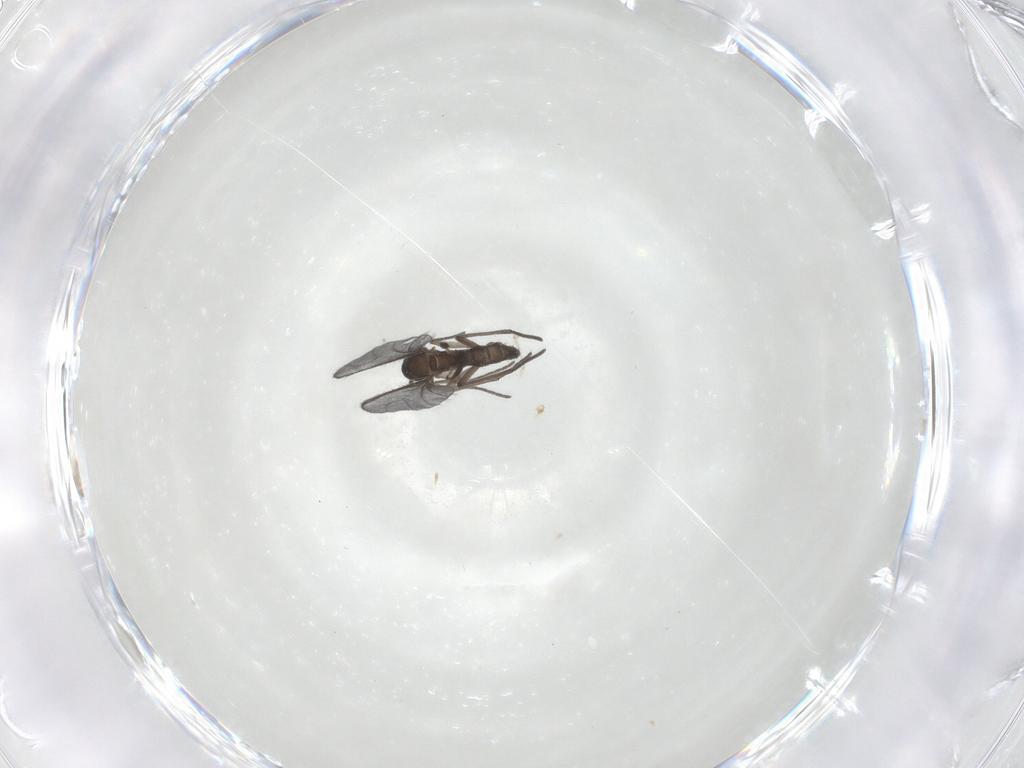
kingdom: Animalia
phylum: Arthropoda
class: Insecta
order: Diptera
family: Sciaridae
